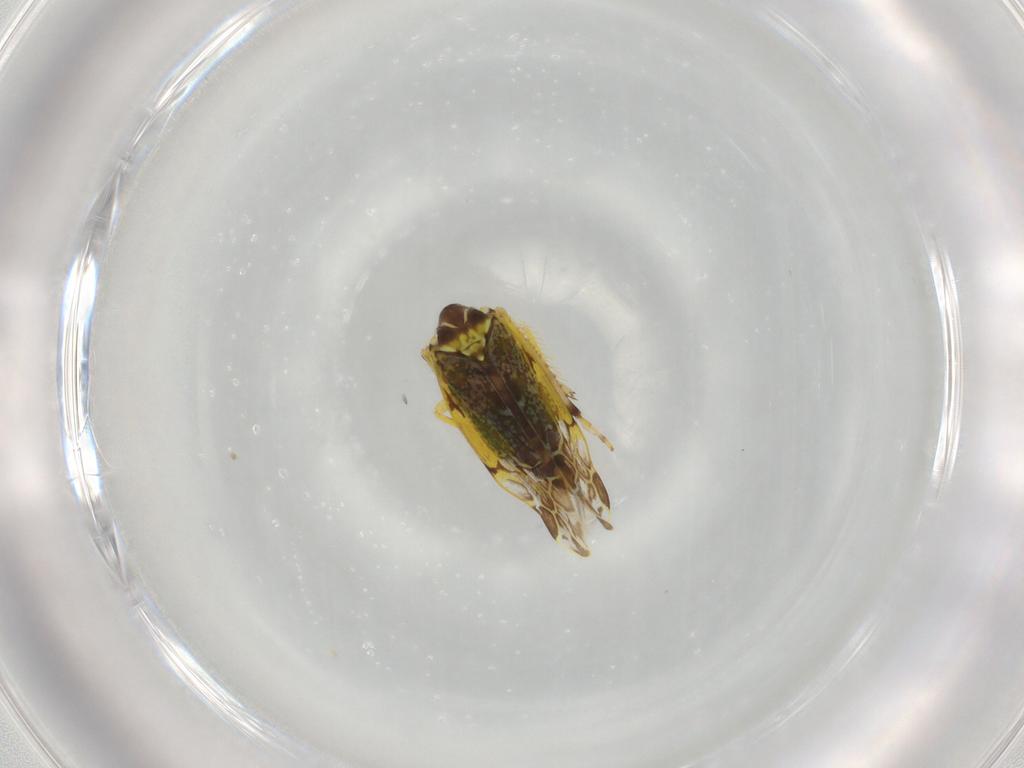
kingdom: Animalia
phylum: Arthropoda
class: Insecta
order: Hemiptera
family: Cicadellidae
